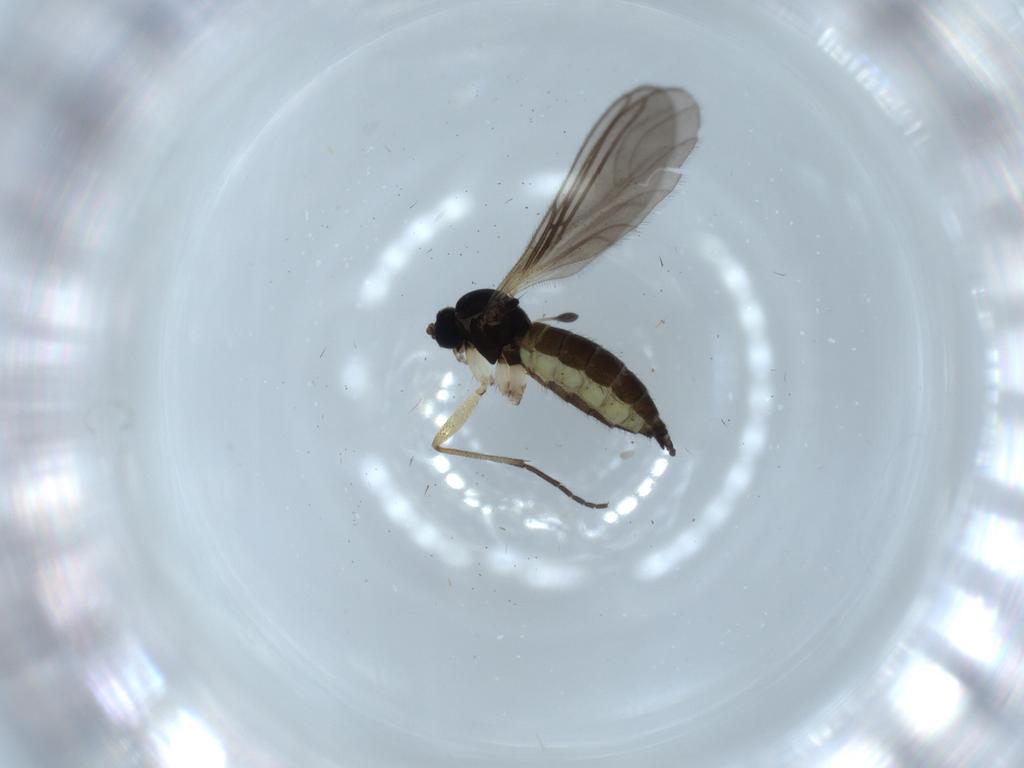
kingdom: Animalia
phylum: Arthropoda
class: Insecta
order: Diptera
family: Sciaridae
